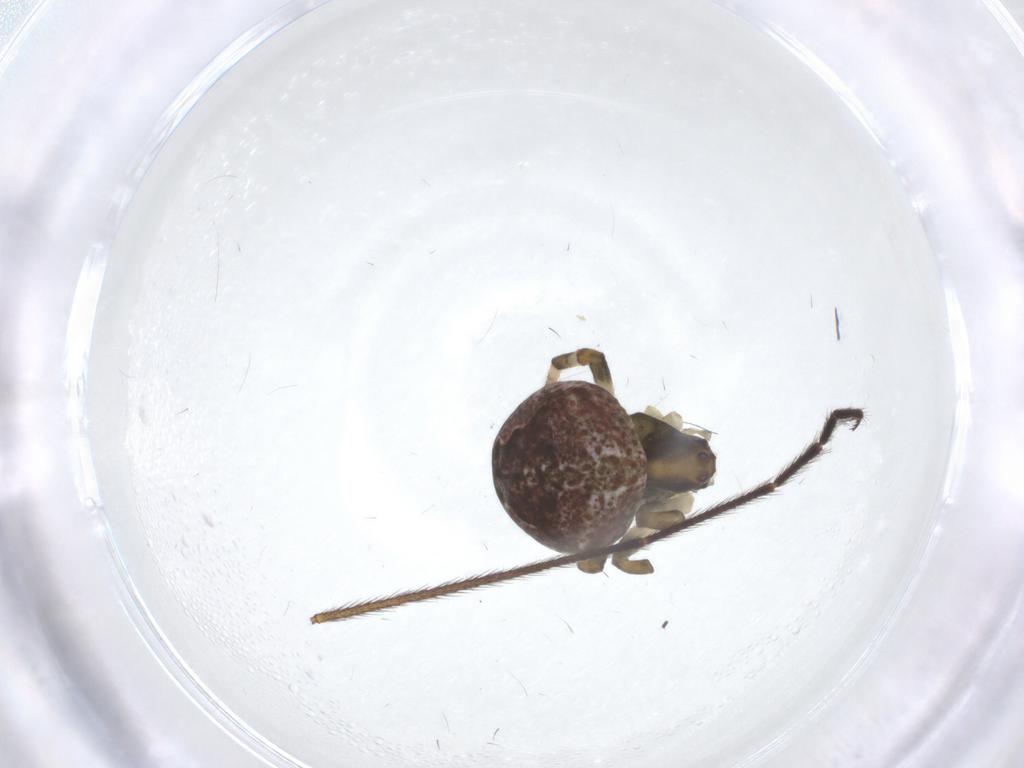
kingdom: Animalia
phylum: Arthropoda
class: Insecta
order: Diptera
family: Limoniidae
